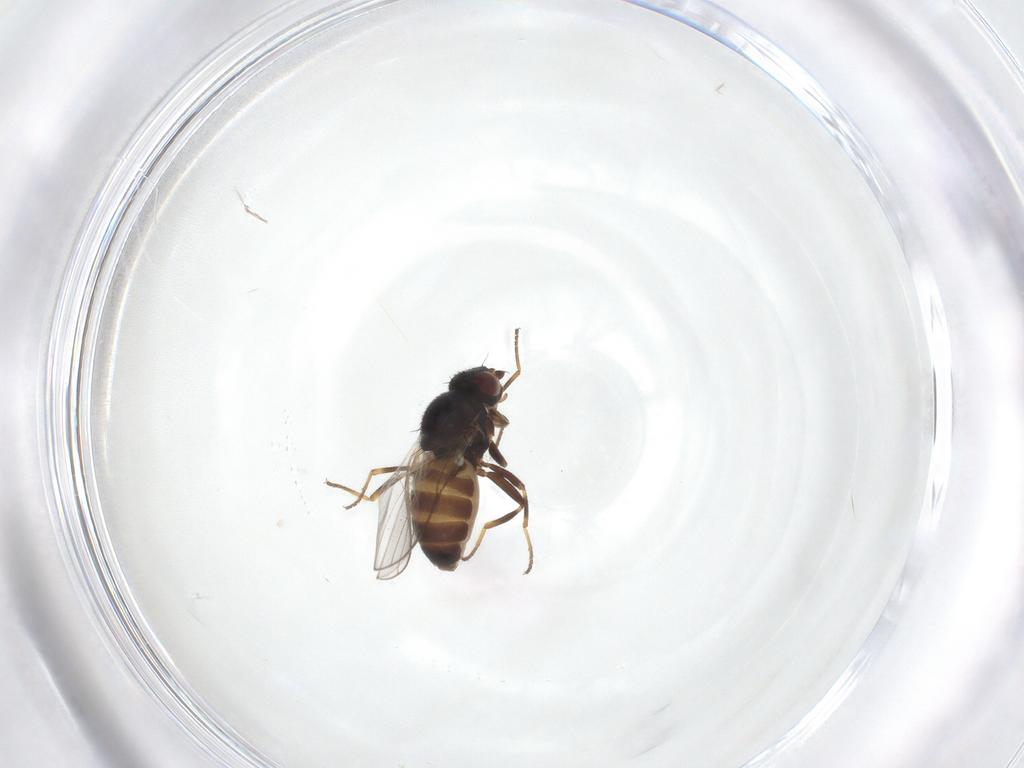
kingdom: Animalia
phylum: Arthropoda
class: Insecta
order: Diptera
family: Chloropidae
